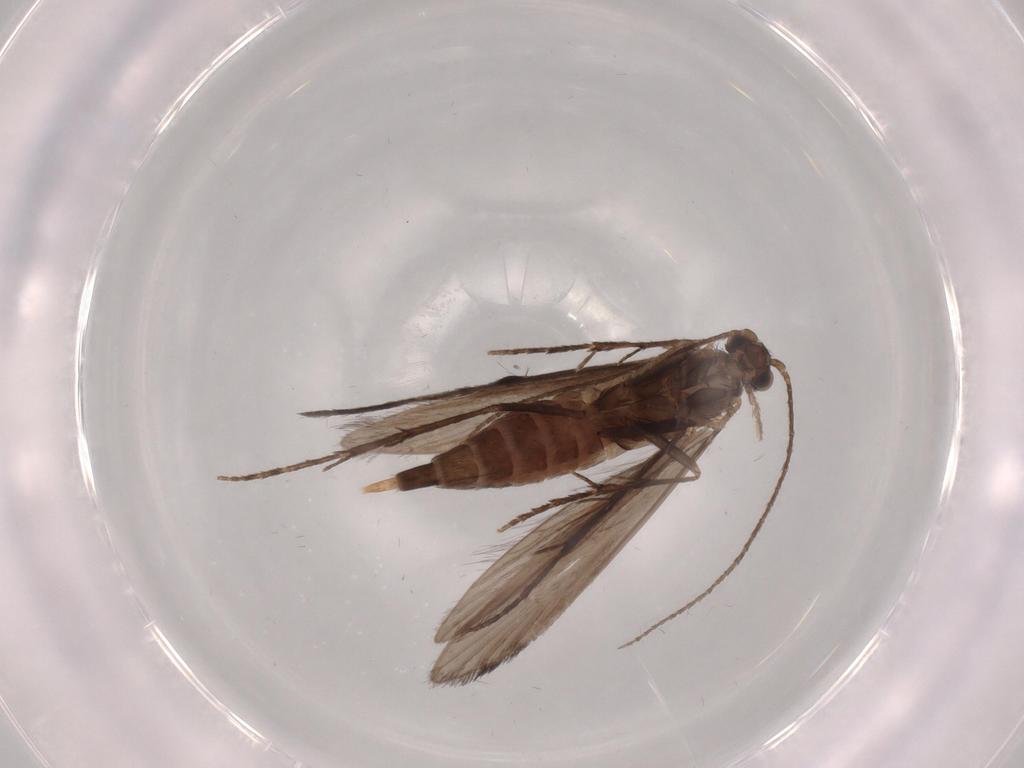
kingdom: Animalia
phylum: Arthropoda
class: Insecta
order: Trichoptera
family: Xiphocentronidae
